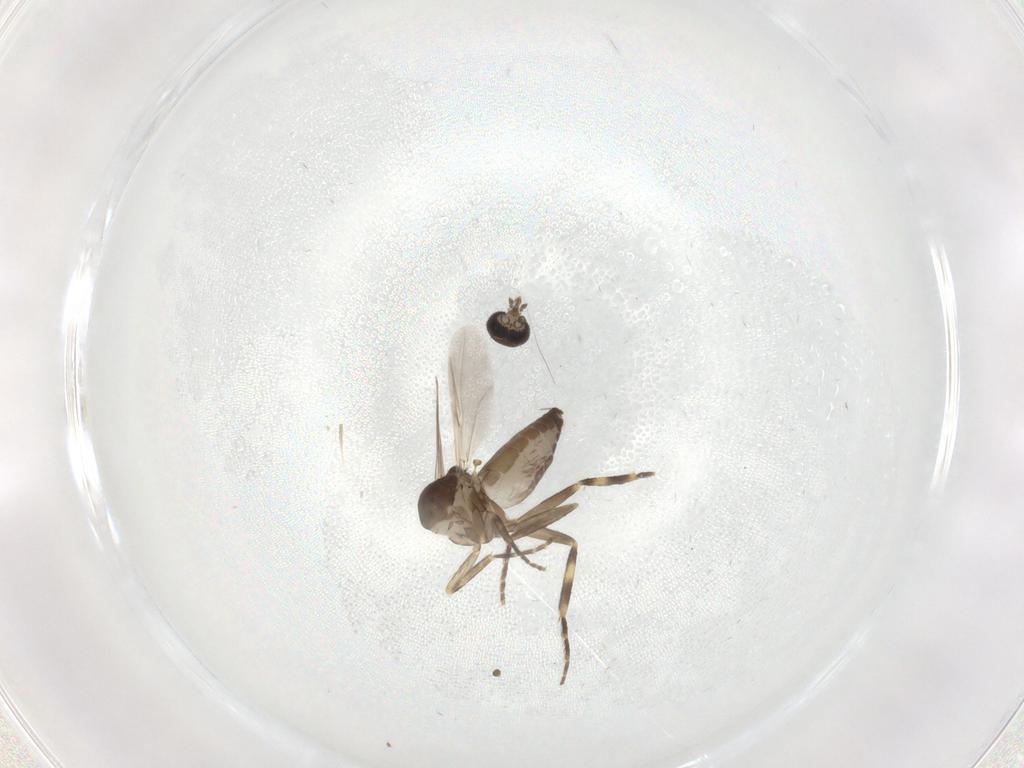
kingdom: Animalia
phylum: Arthropoda
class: Insecta
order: Diptera
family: Ceratopogonidae
